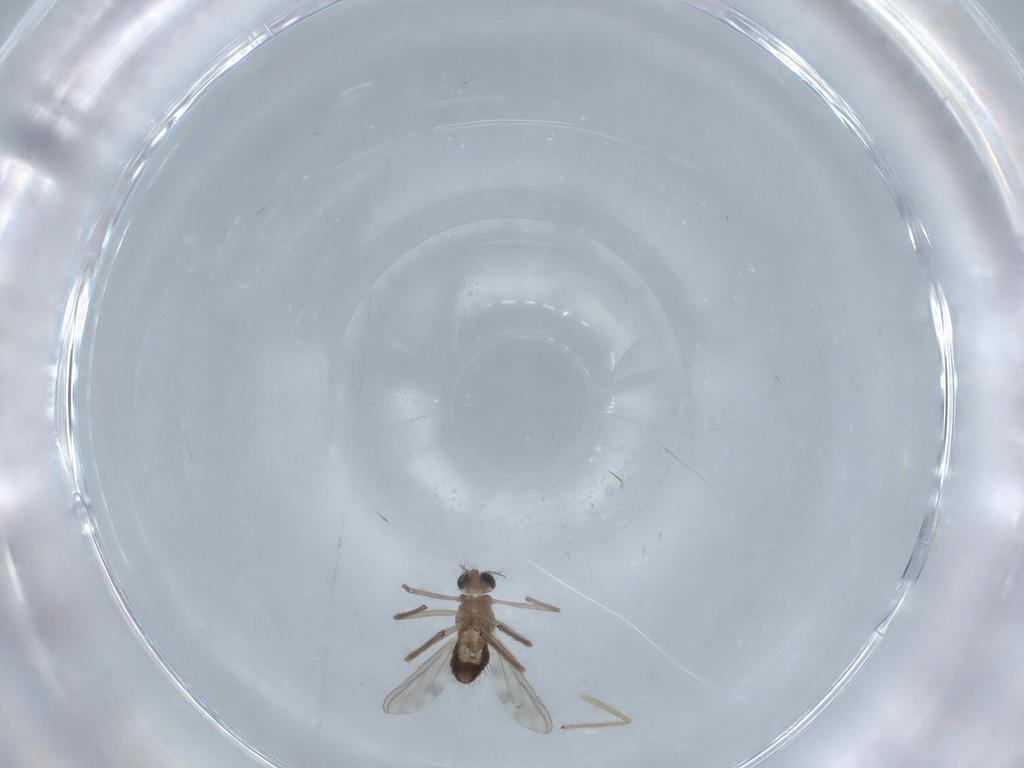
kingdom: Animalia
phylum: Arthropoda
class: Insecta
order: Diptera
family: Chironomidae
